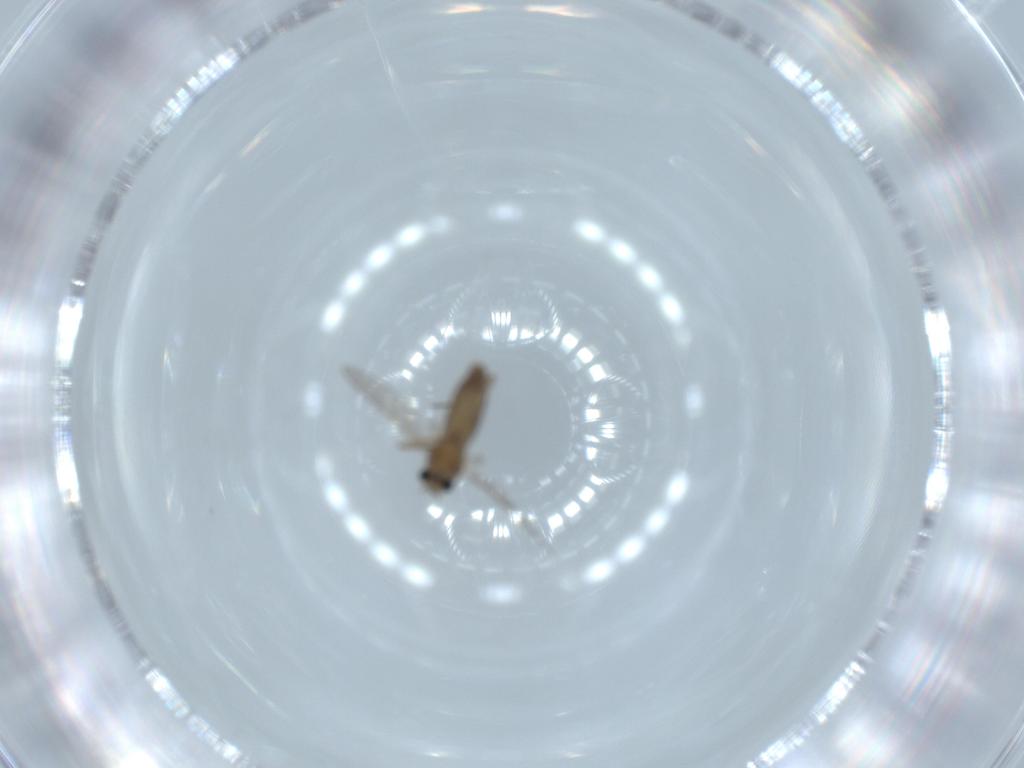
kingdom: Animalia
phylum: Arthropoda
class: Insecta
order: Diptera
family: Chironomidae
